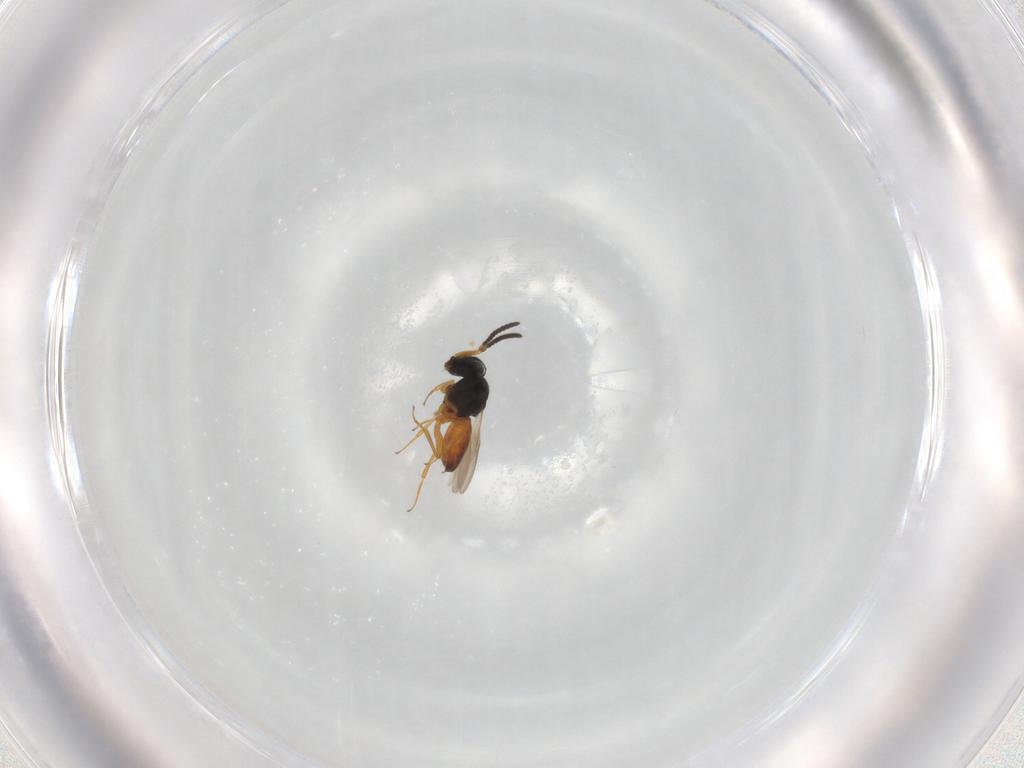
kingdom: Animalia
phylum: Arthropoda
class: Insecta
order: Hymenoptera
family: Scelionidae
